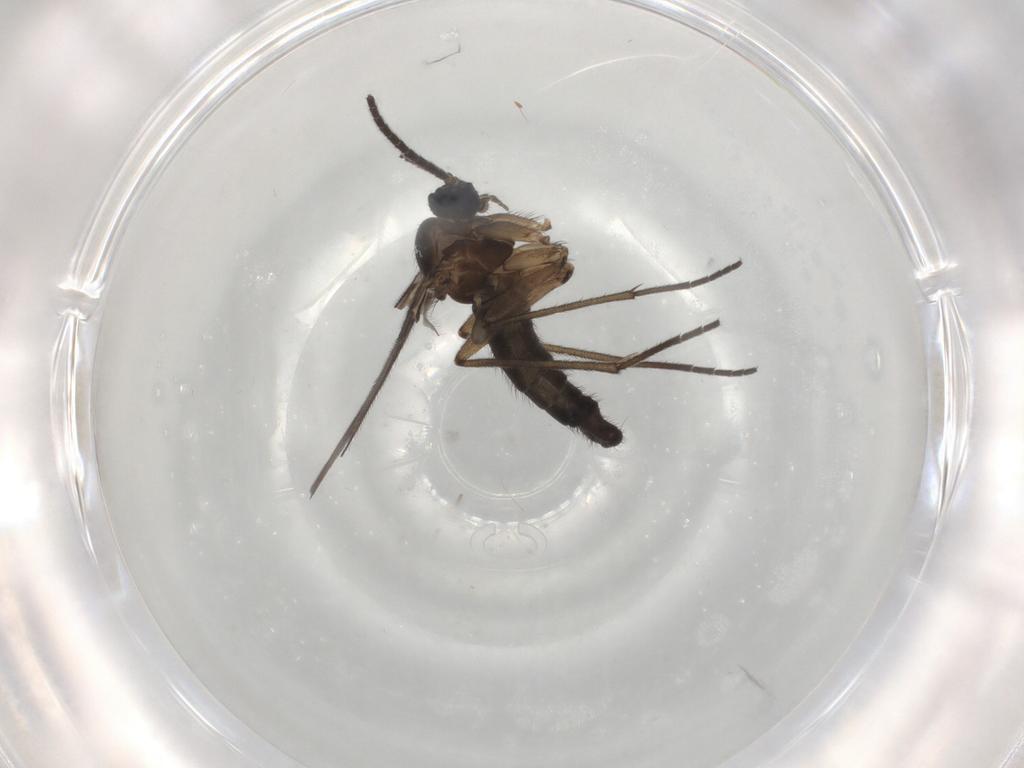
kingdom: Animalia
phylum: Arthropoda
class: Insecta
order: Diptera
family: Sciaridae
